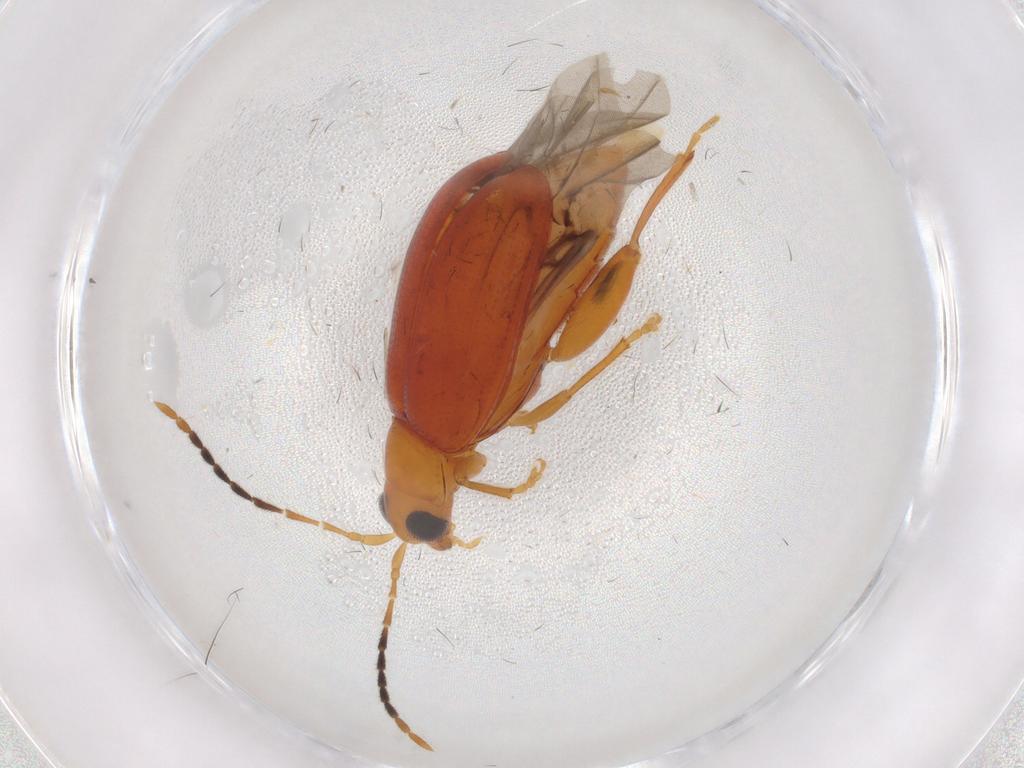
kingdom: Animalia
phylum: Arthropoda
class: Insecta
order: Coleoptera
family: Chrysomelidae
